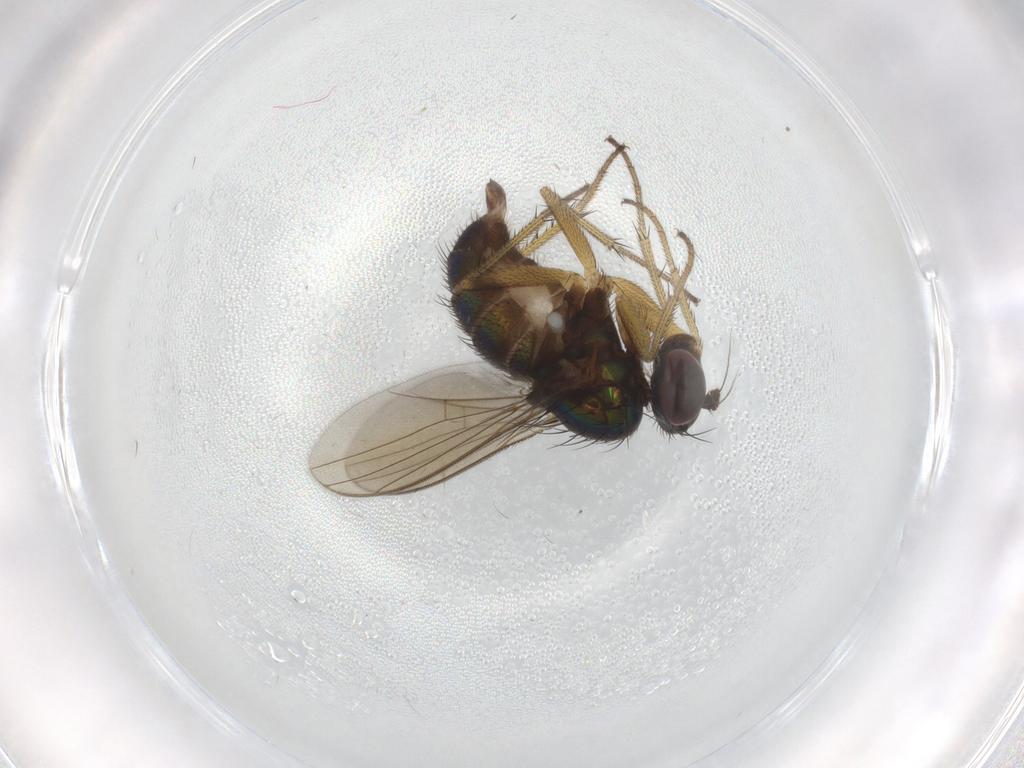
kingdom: Animalia
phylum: Arthropoda
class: Insecta
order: Diptera
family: Dolichopodidae
